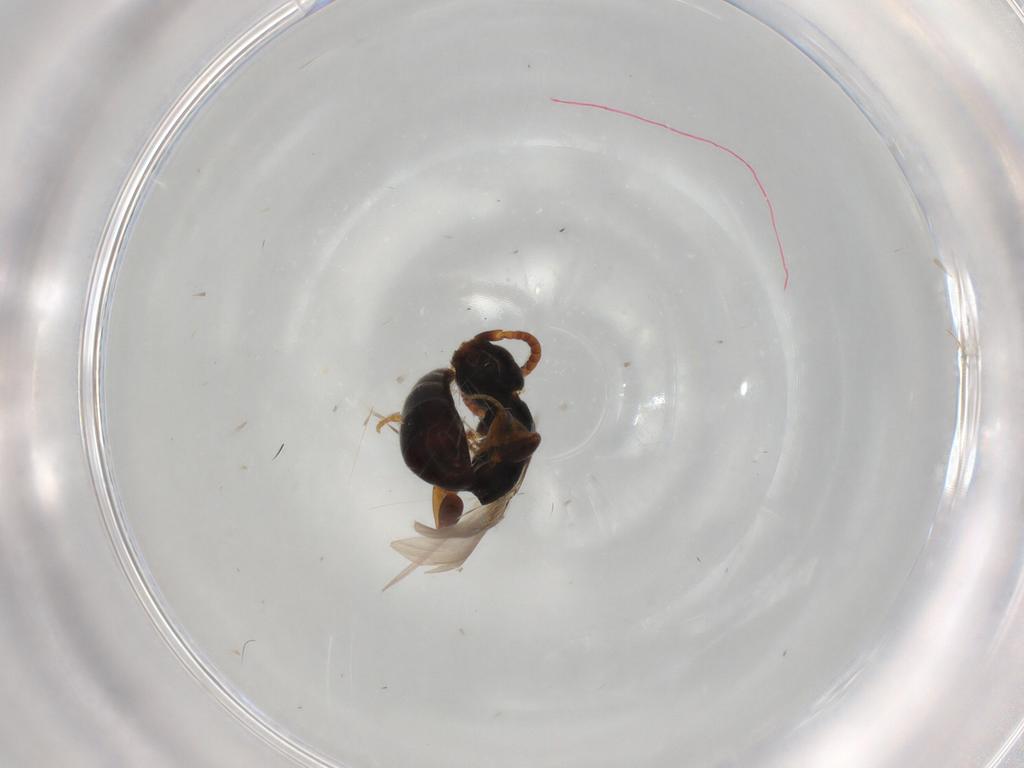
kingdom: Animalia
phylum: Arthropoda
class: Insecta
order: Hymenoptera
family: Bethylidae
